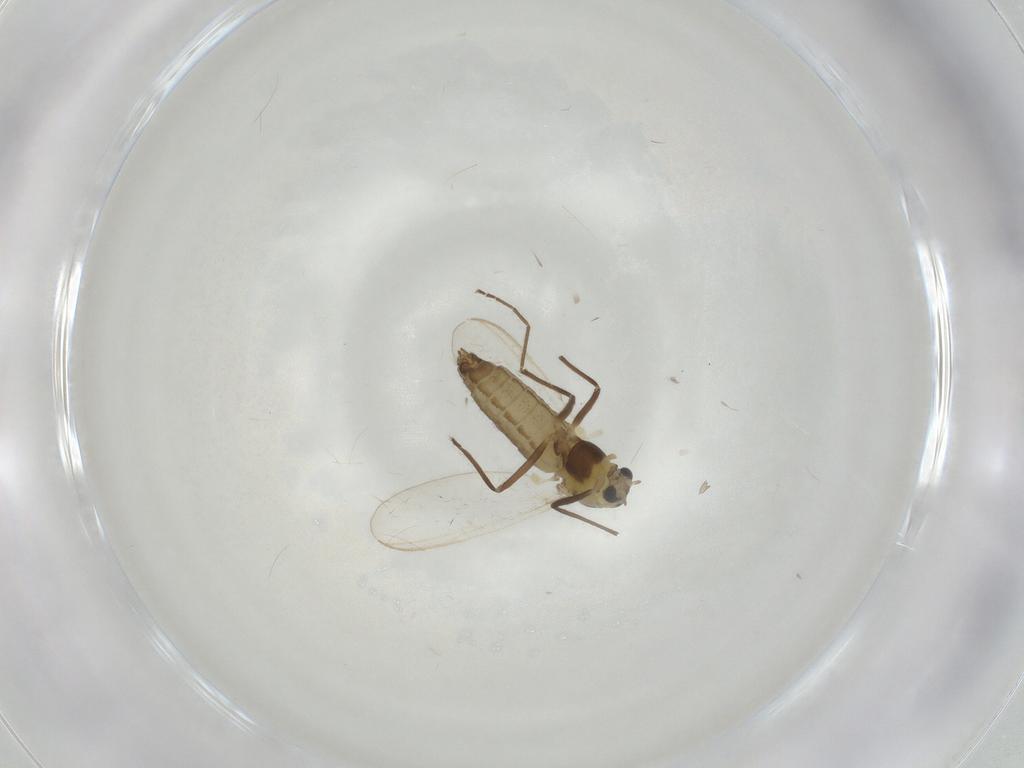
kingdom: Animalia
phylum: Arthropoda
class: Insecta
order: Diptera
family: Chironomidae
